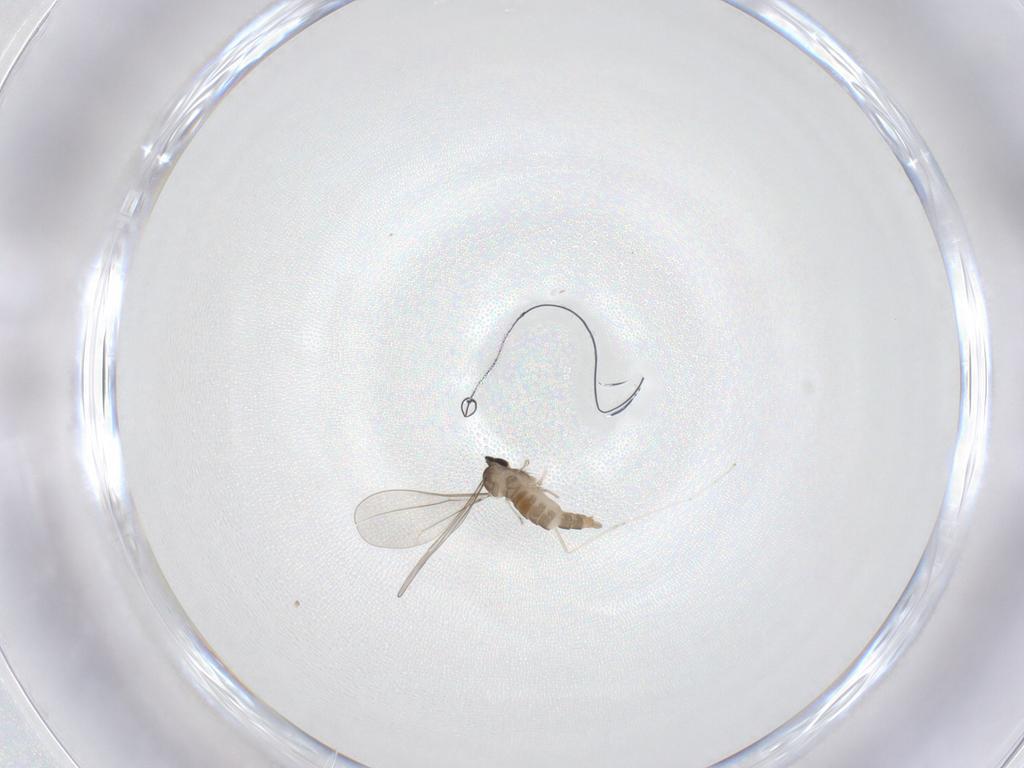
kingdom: Animalia
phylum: Arthropoda
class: Insecta
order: Diptera
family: Cecidomyiidae
